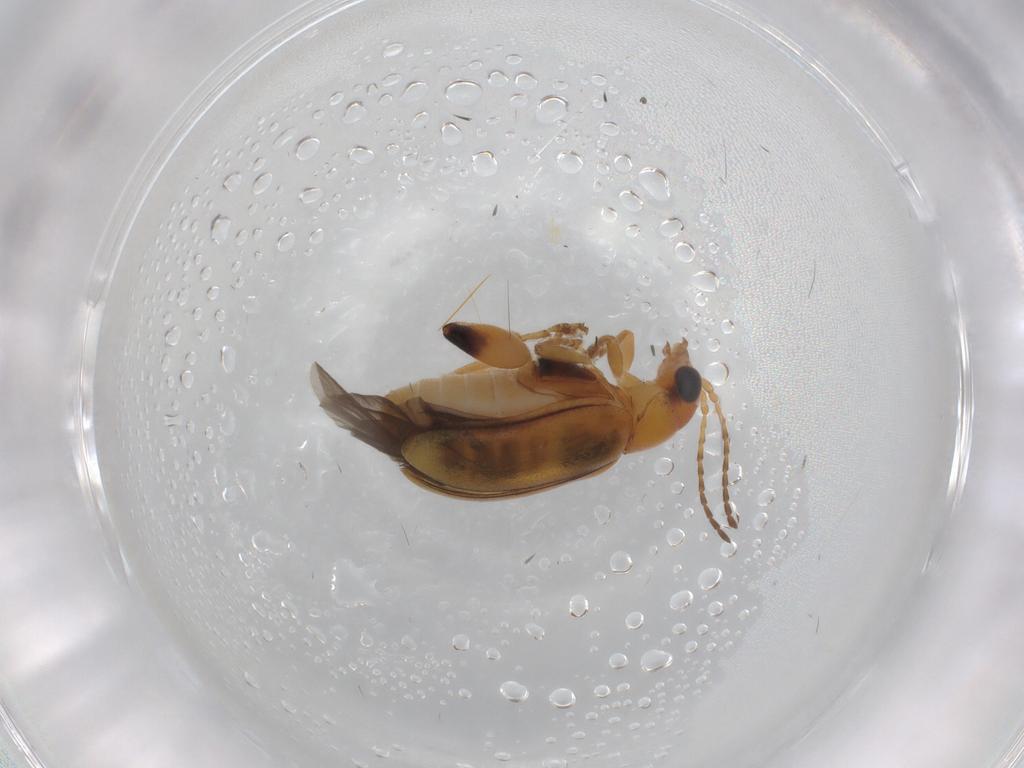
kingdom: Animalia
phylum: Arthropoda
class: Insecta
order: Coleoptera
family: Chrysomelidae
